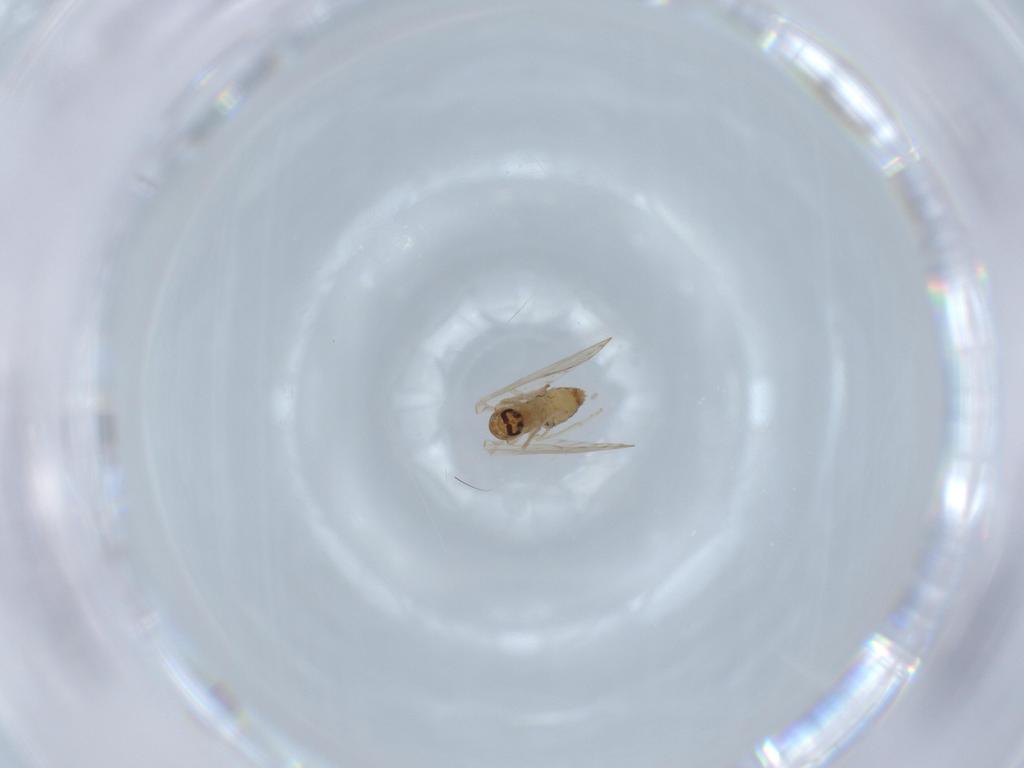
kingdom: Animalia
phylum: Arthropoda
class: Insecta
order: Diptera
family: Psychodidae
